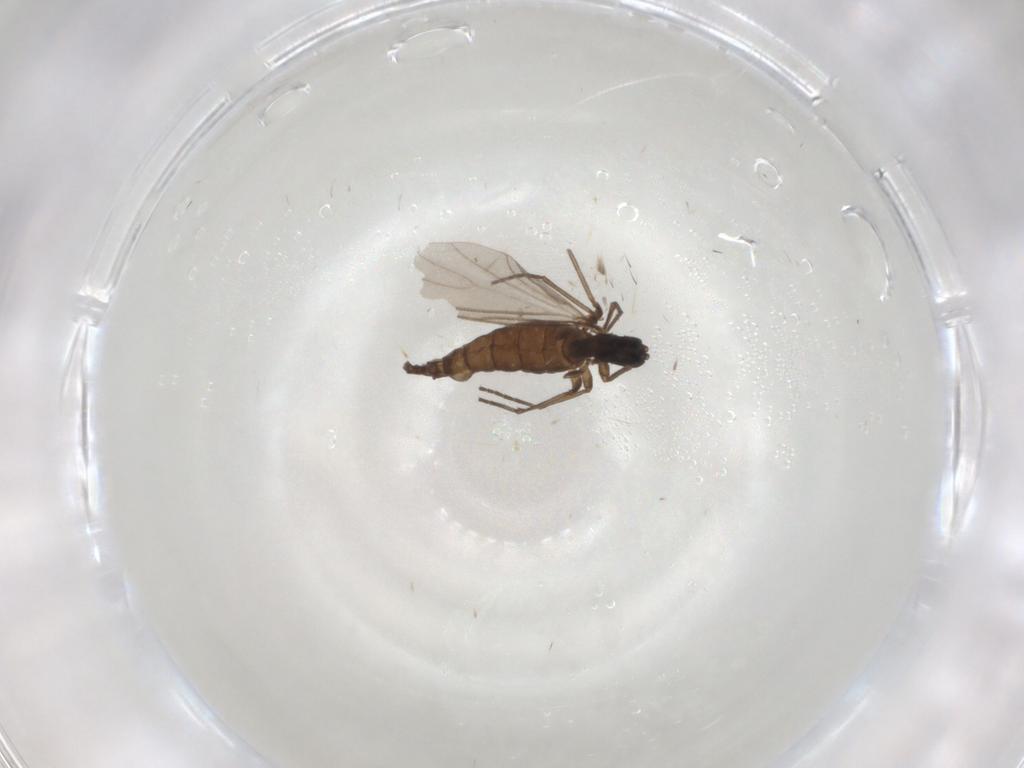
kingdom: Animalia
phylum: Arthropoda
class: Insecta
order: Diptera
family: Sciaridae
